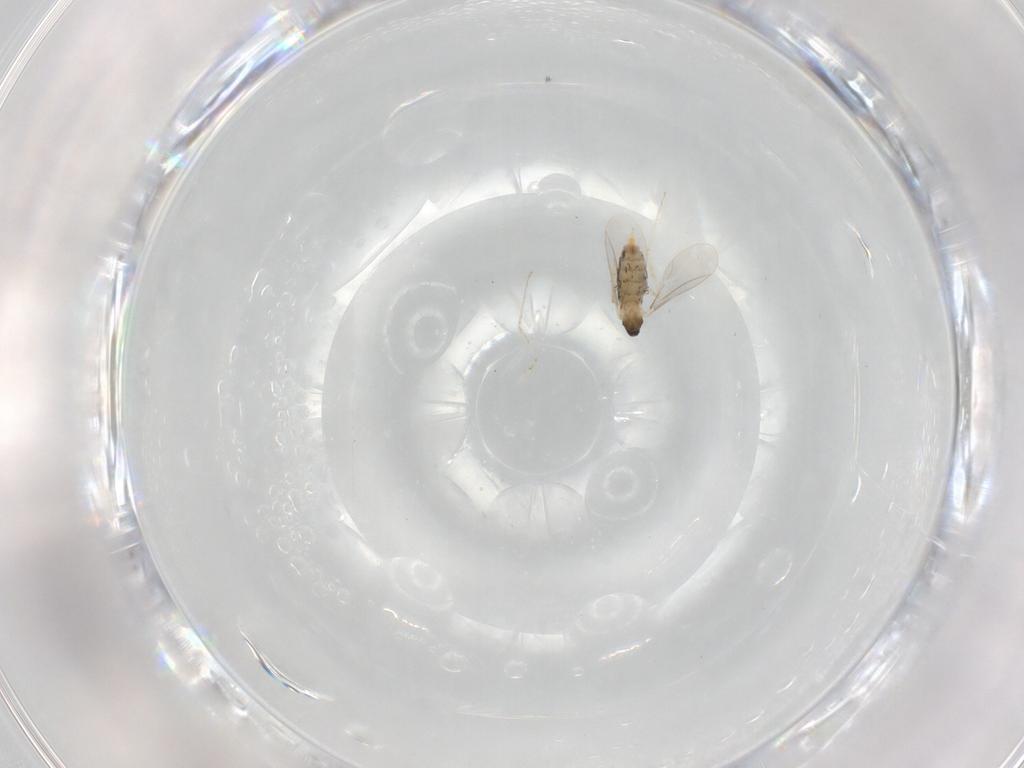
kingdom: Animalia
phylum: Arthropoda
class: Insecta
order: Diptera
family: Cecidomyiidae
